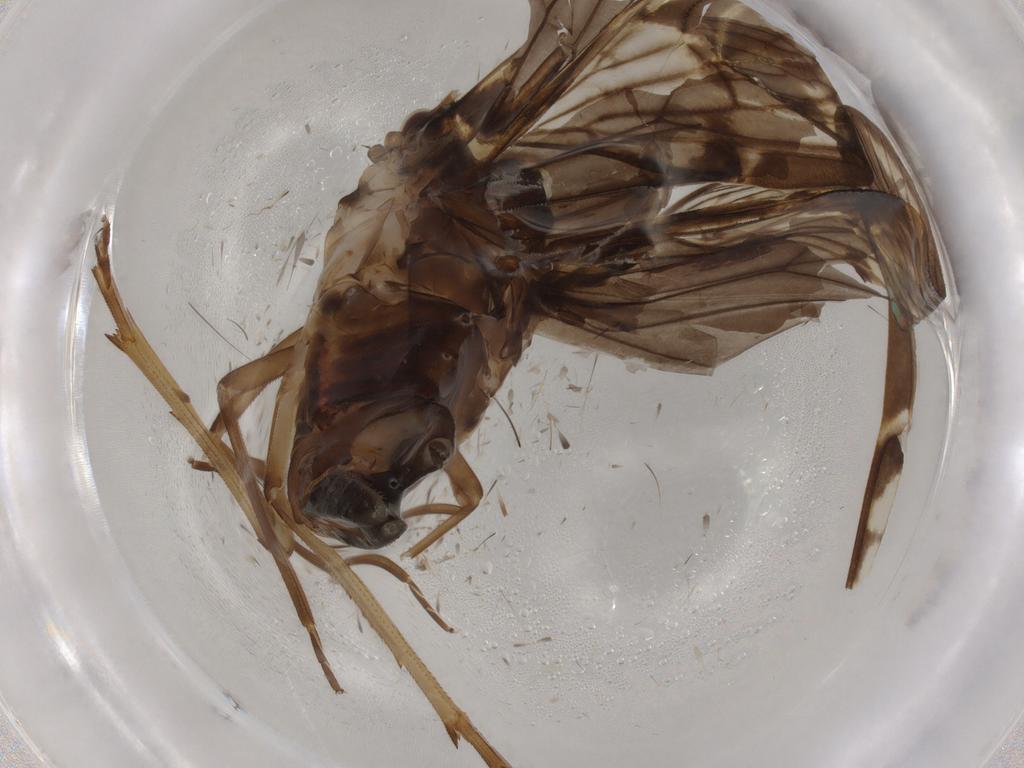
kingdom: Animalia
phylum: Arthropoda
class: Insecta
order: Hemiptera
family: Cixiidae
